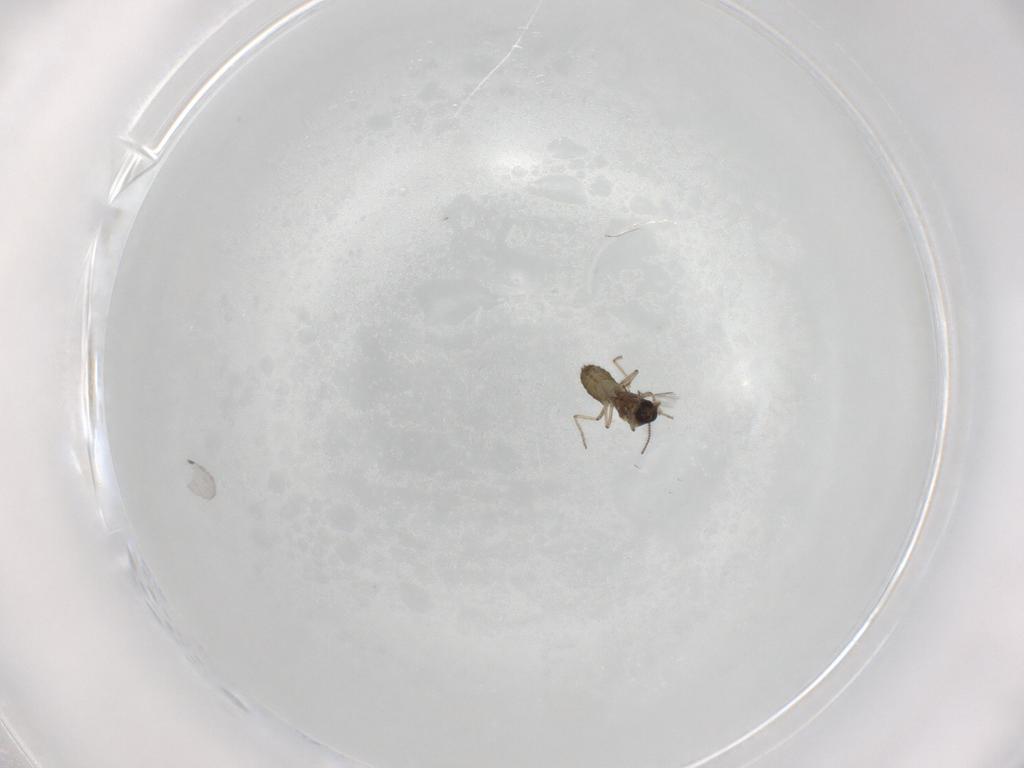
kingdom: Animalia
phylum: Arthropoda
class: Insecta
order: Diptera
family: Ceratopogonidae
